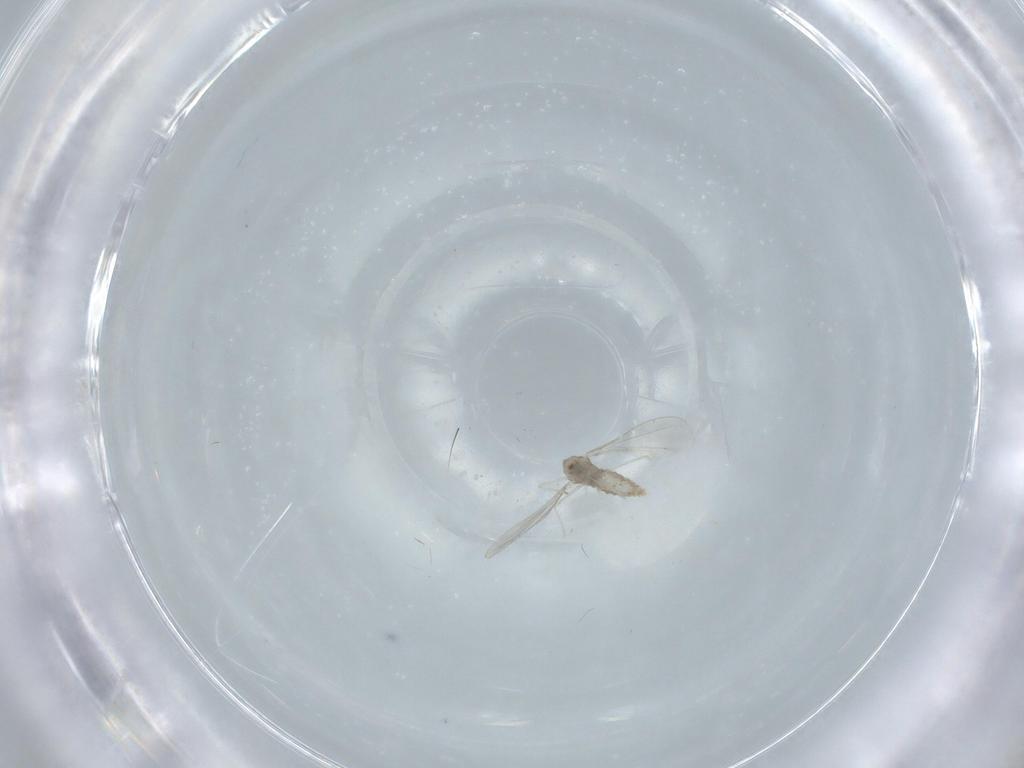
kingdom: Animalia
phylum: Arthropoda
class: Insecta
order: Diptera
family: Cecidomyiidae
